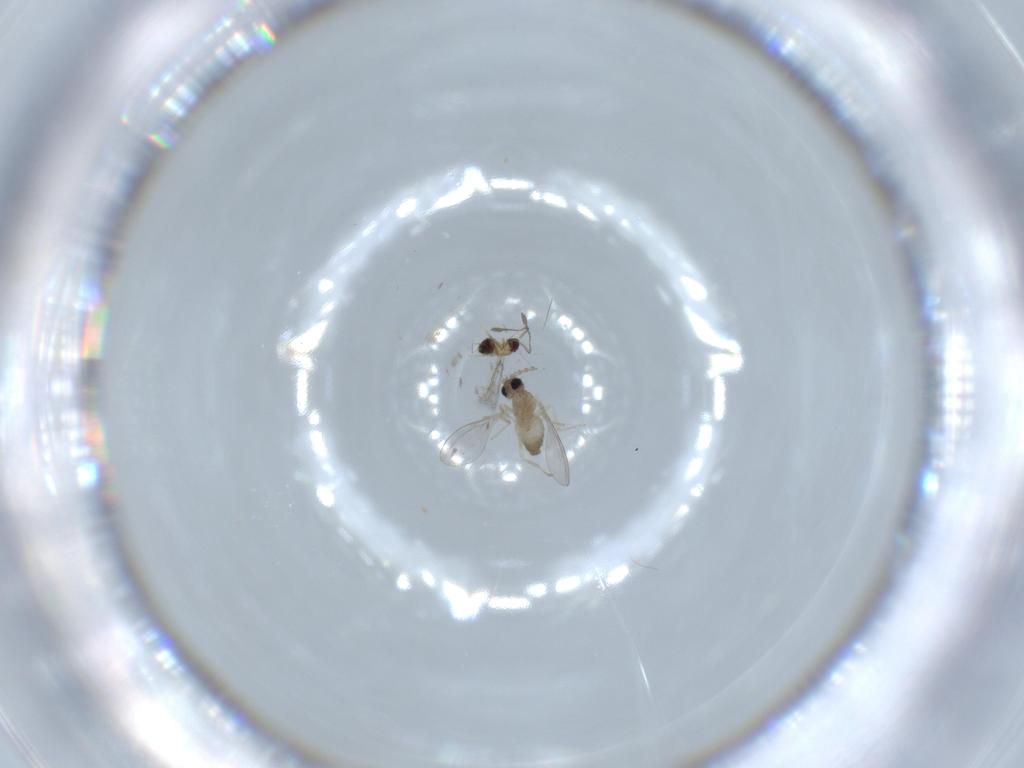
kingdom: Animalia
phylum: Arthropoda
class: Insecta
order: Diptera
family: Cecidomyiidae
